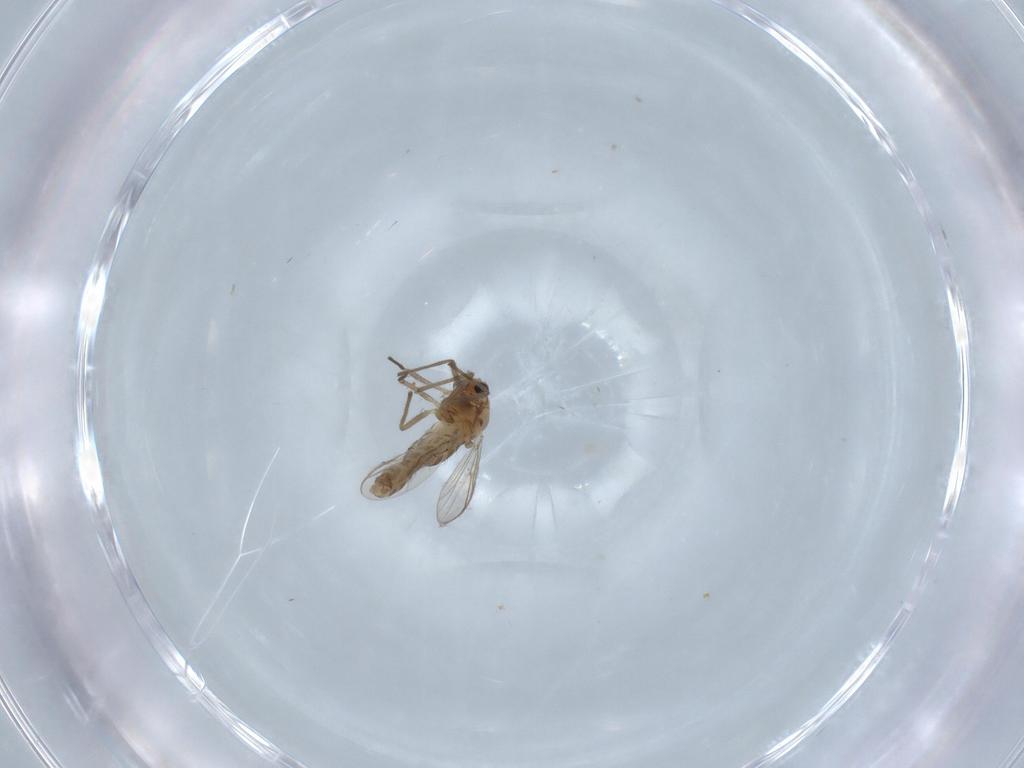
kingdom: Animalia
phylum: Arthropoda
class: Insecta
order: Diptera
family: Chironomidae
